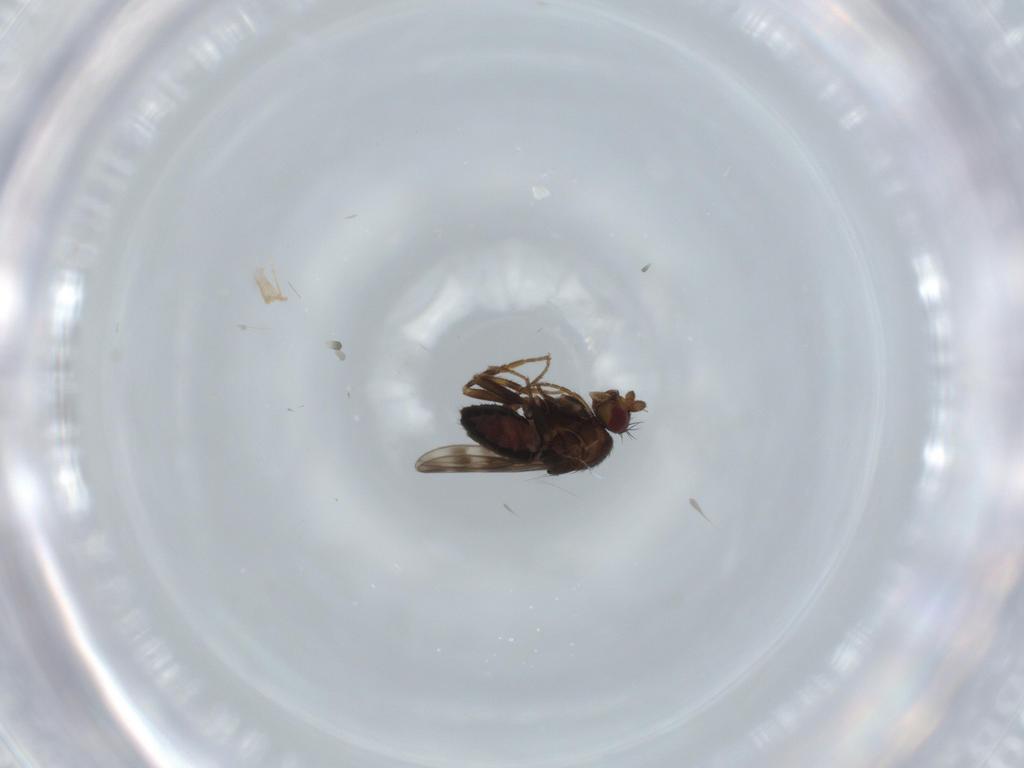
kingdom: Animalia
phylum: Arthropoda
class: Insecta
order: Diptera
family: Sphaeroceridae
